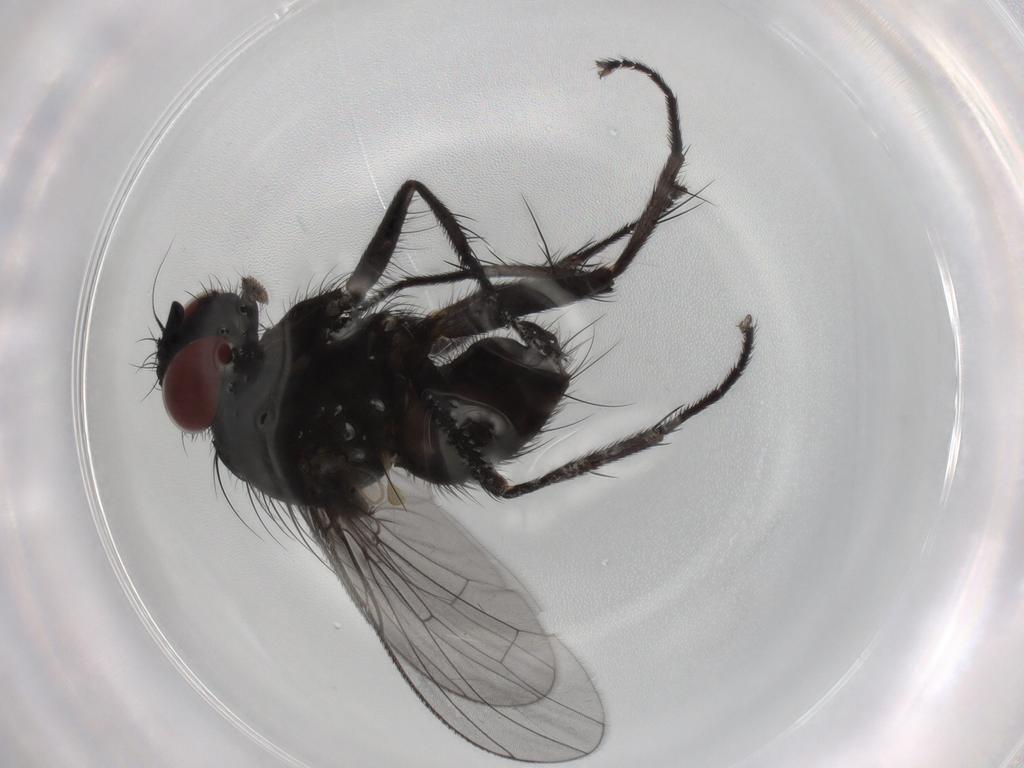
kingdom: Animalia
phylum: Arthropoda
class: Insecta
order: Diptera
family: Muscidae
